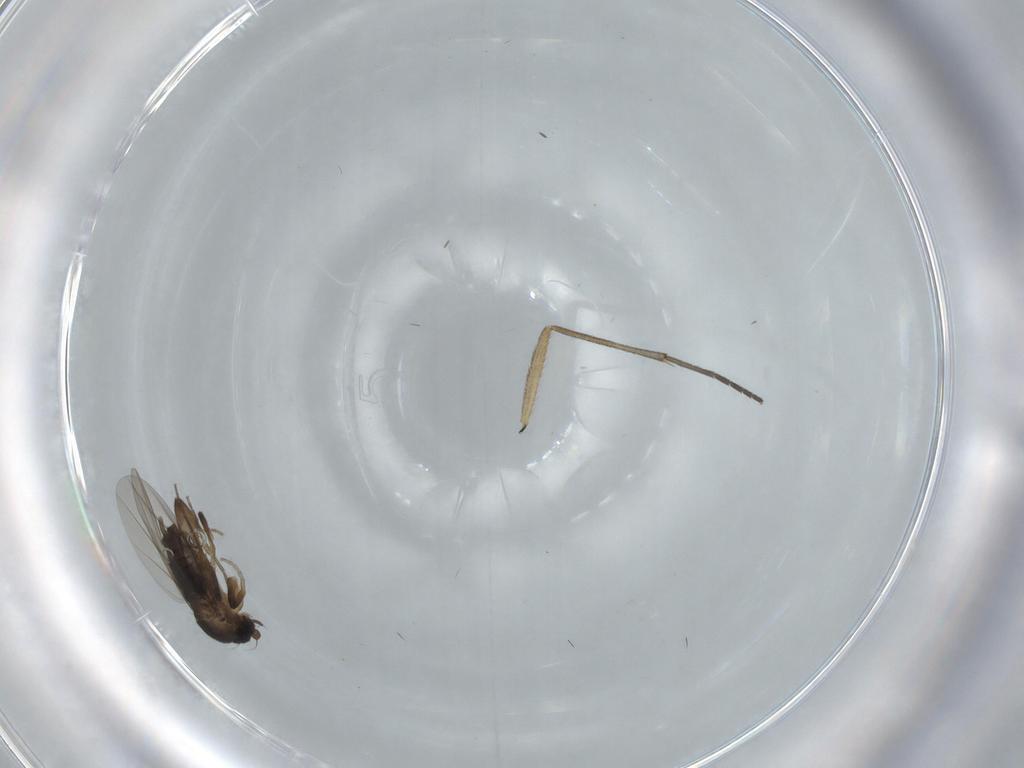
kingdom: Animalia
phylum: Arthropoda
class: Insecta
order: Diptera
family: Phoridae
